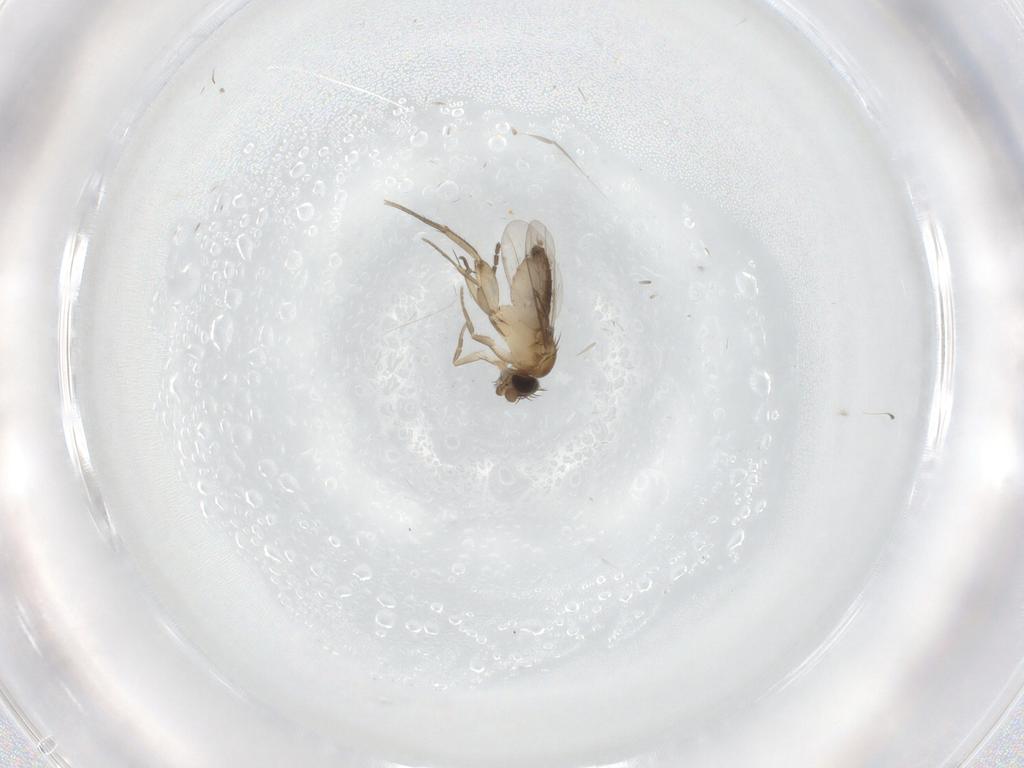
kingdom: Animalia
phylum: Arthropoda
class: Insecta
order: Diptera
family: Phoridae
